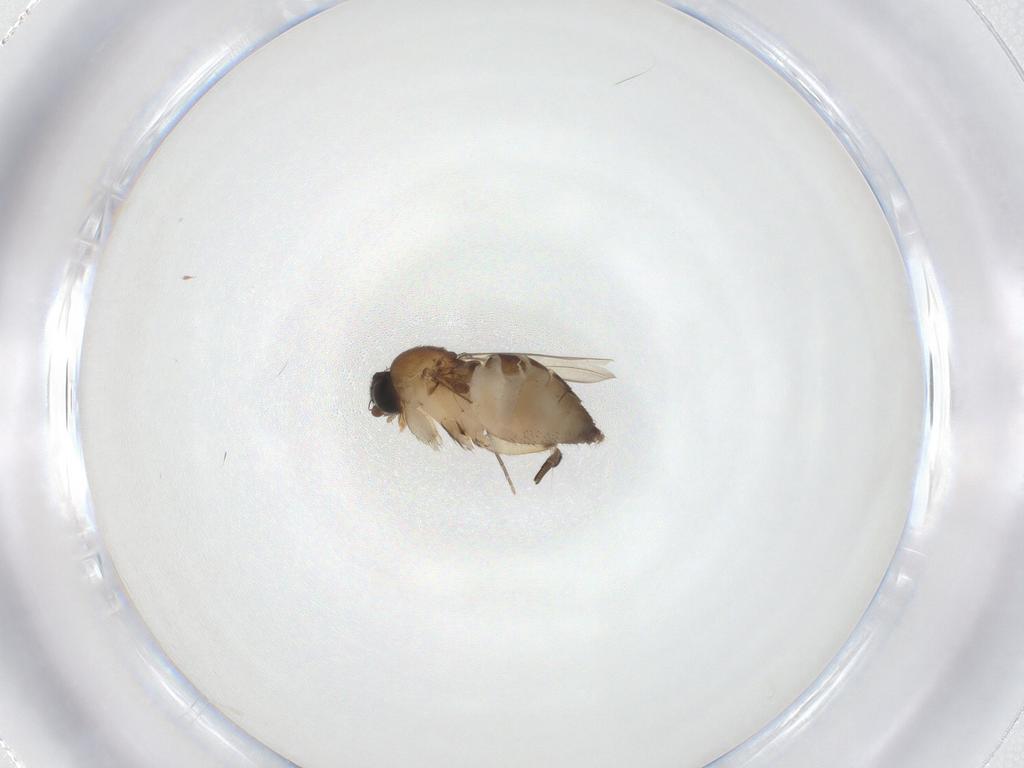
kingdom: Animalia
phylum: Arthropoda
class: Insecta
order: Diptera
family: Phoridae
